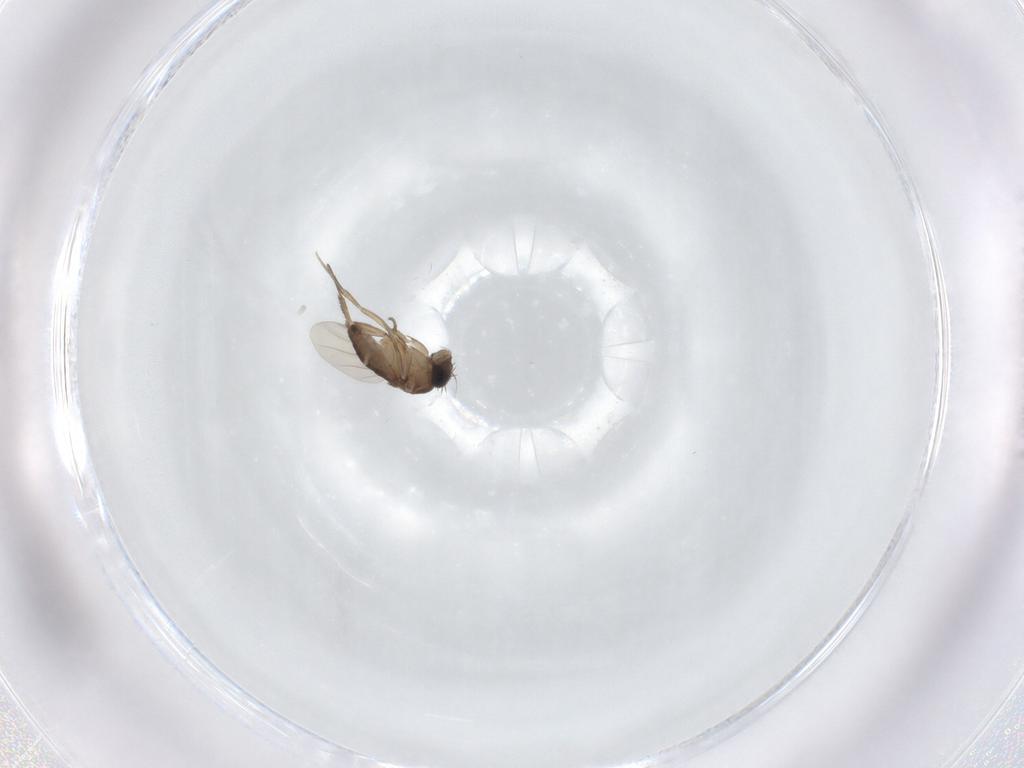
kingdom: Animalia
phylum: Arthropoda
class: Insecta
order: Diptera
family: Phoridae
